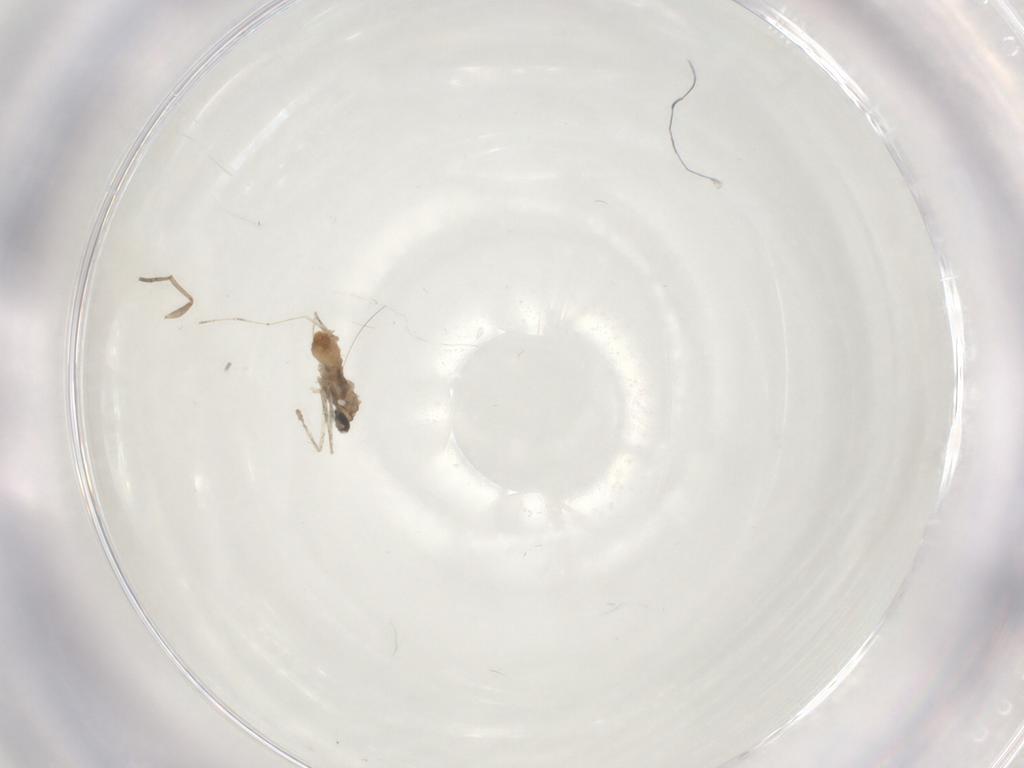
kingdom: Animalia
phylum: Arthropoda
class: Insecta
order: Diptera
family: Cecidomyiidae
